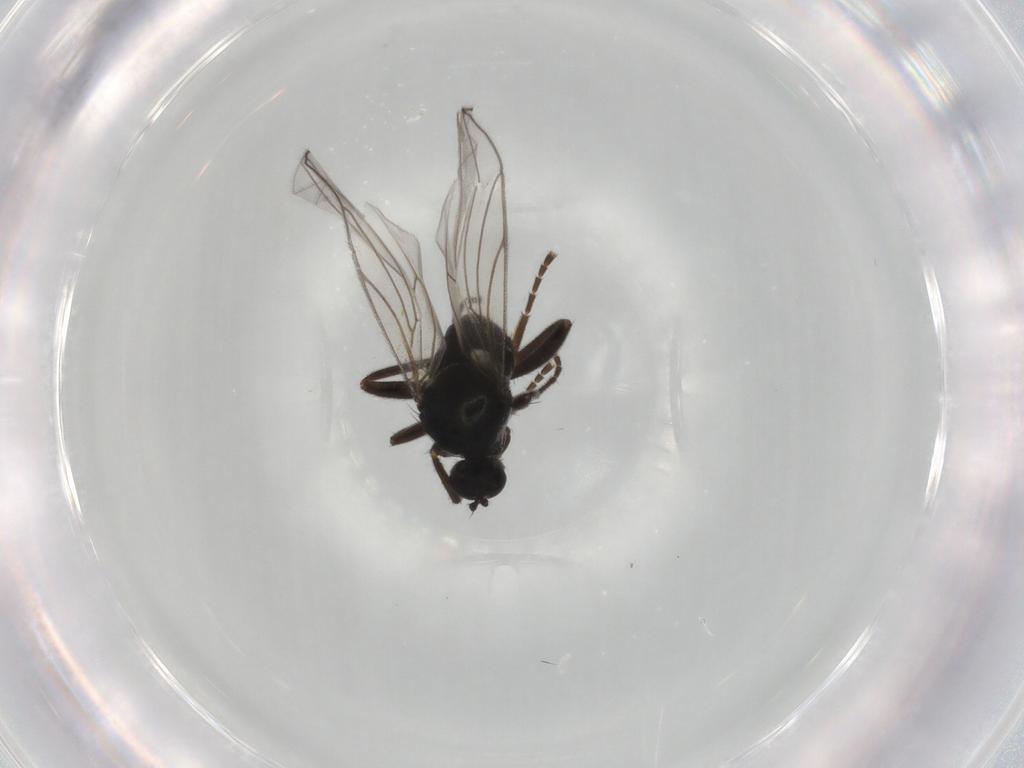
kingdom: Animalia
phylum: Arthropoda
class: Insecta
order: Diptera
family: Hybotidae
